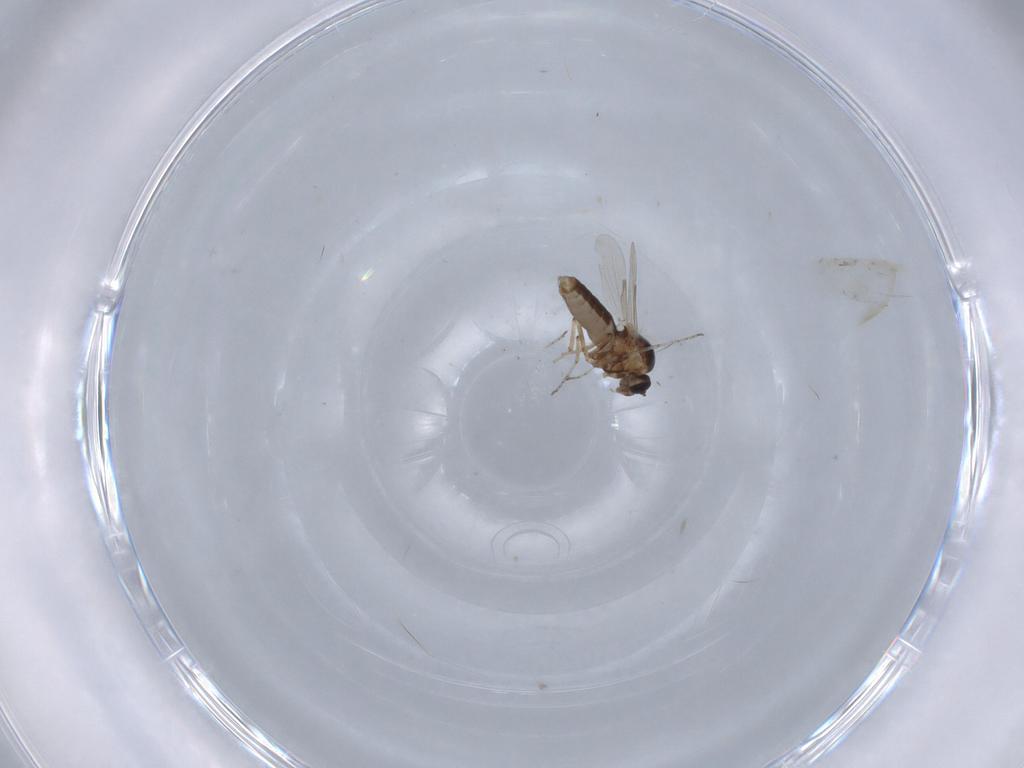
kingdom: Animalia
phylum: Arthropoda
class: Insecta
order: Diptera
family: Ceratopogonidae
